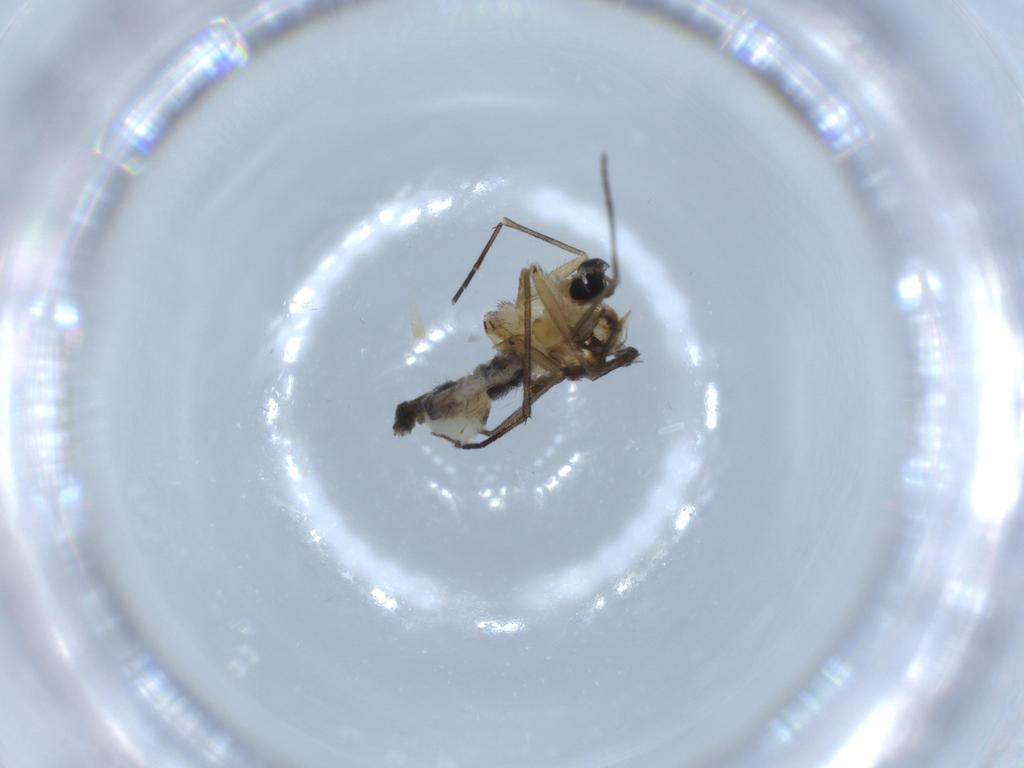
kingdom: Animalia
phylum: Arthropoda
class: Insecta
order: Diptera
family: Sciaridae
